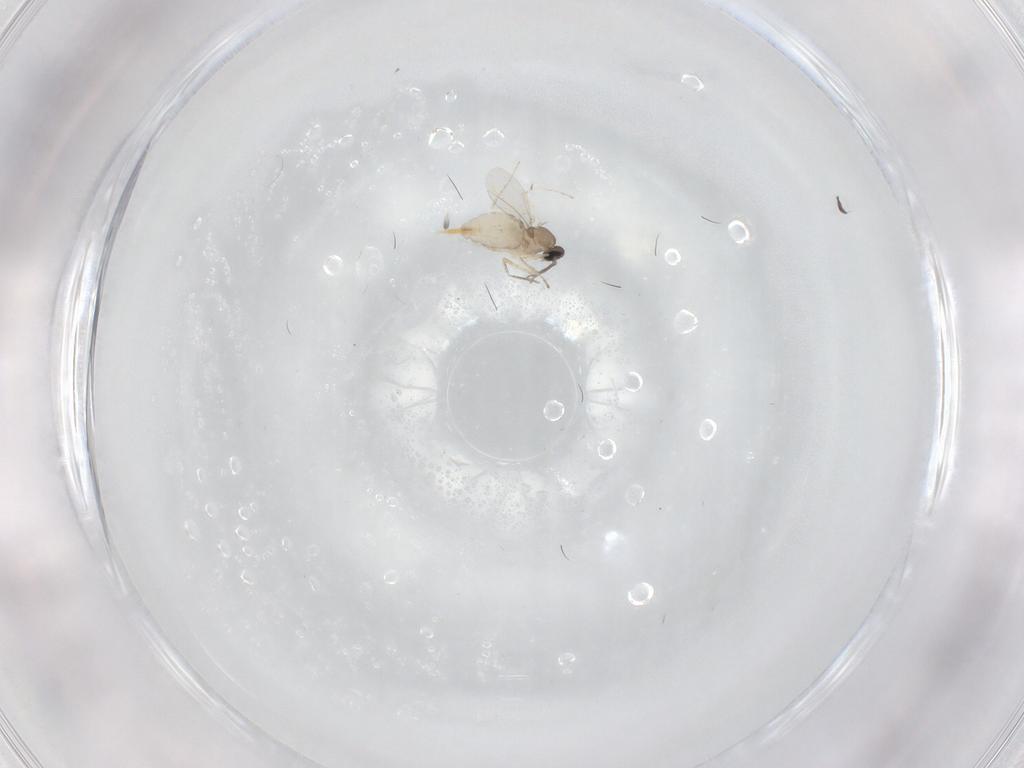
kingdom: Animalia
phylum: Arthropoda
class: Insecta
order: Diptera
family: Cecidomyiidae
